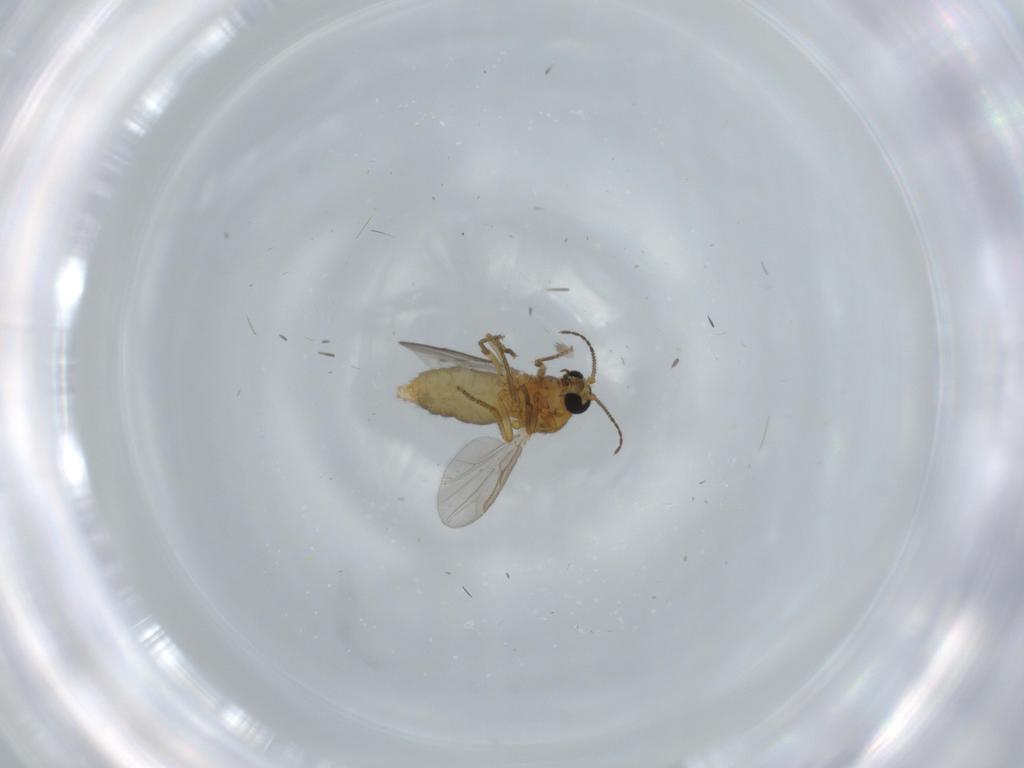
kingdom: Animalia
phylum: Arthropoda
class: Insecta
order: Diptera
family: Ceratopogonidae
